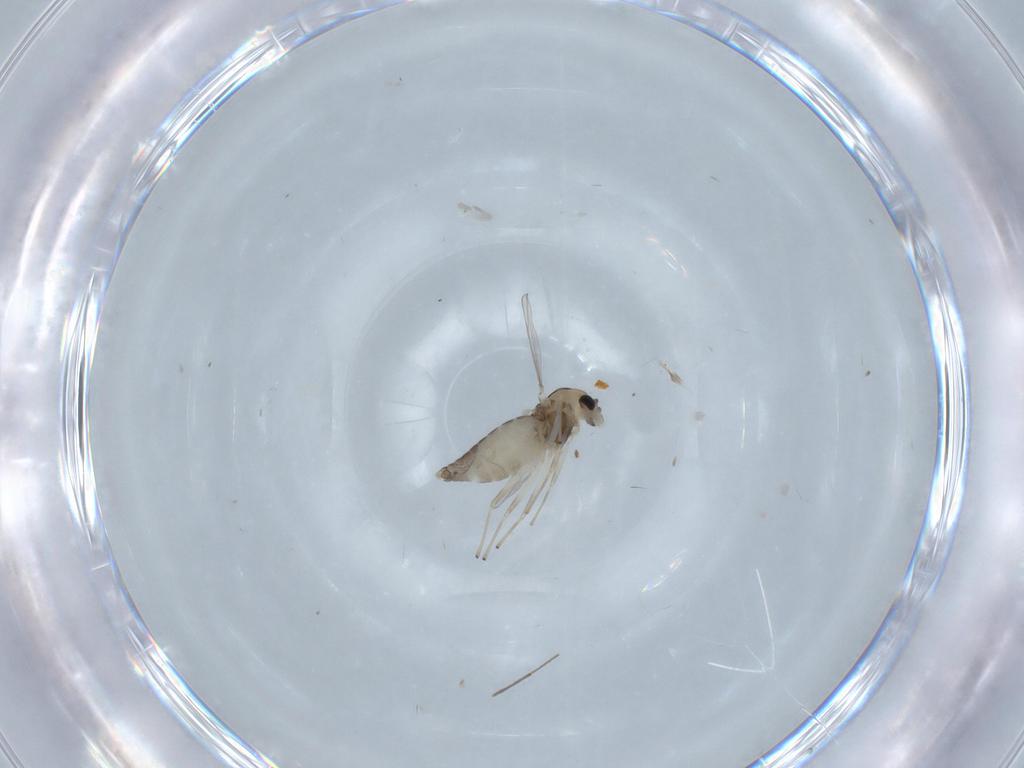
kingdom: Animalia
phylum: Arthropoda
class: Insecta
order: Diptera
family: Chironomidae
